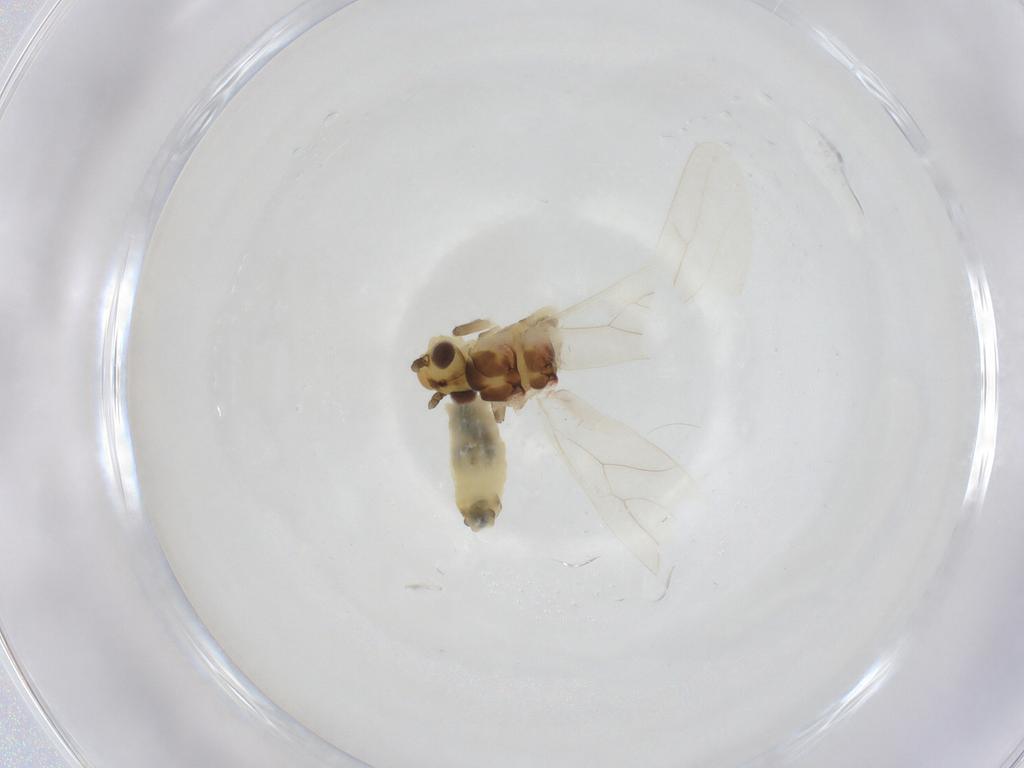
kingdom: Animalia
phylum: Arthropoda
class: Insecta
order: Psocodea
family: Caeciliusidae
